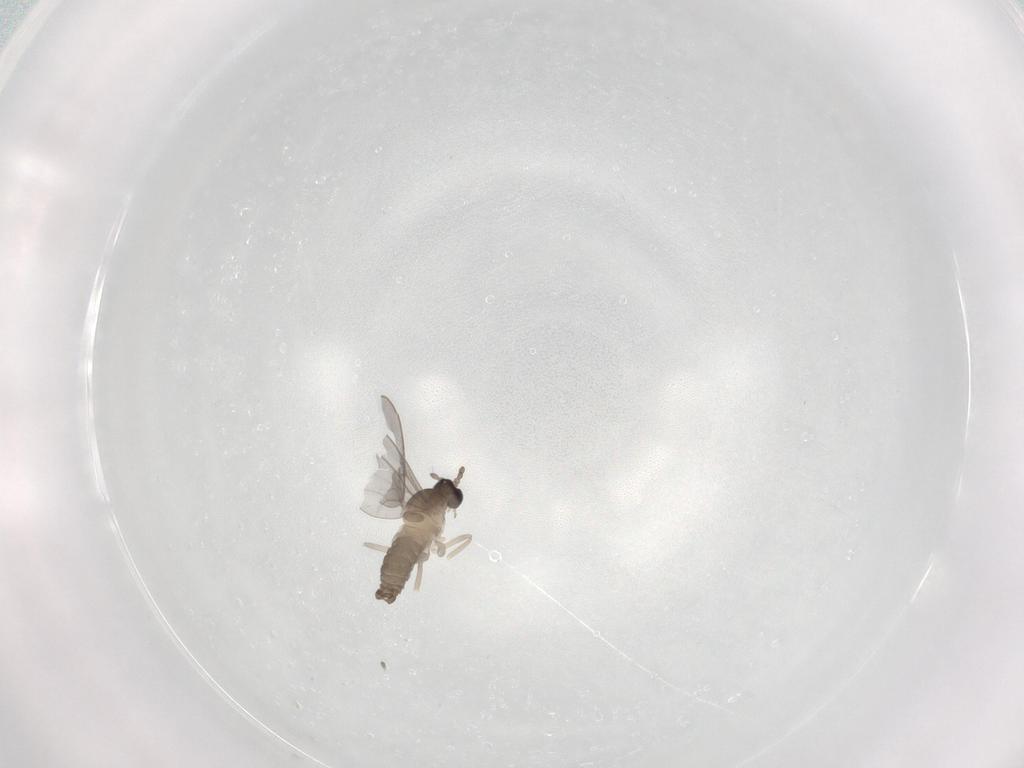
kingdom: Animalia
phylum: Arthropoda
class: Insecta
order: Diptera
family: Cecidomyiidae
